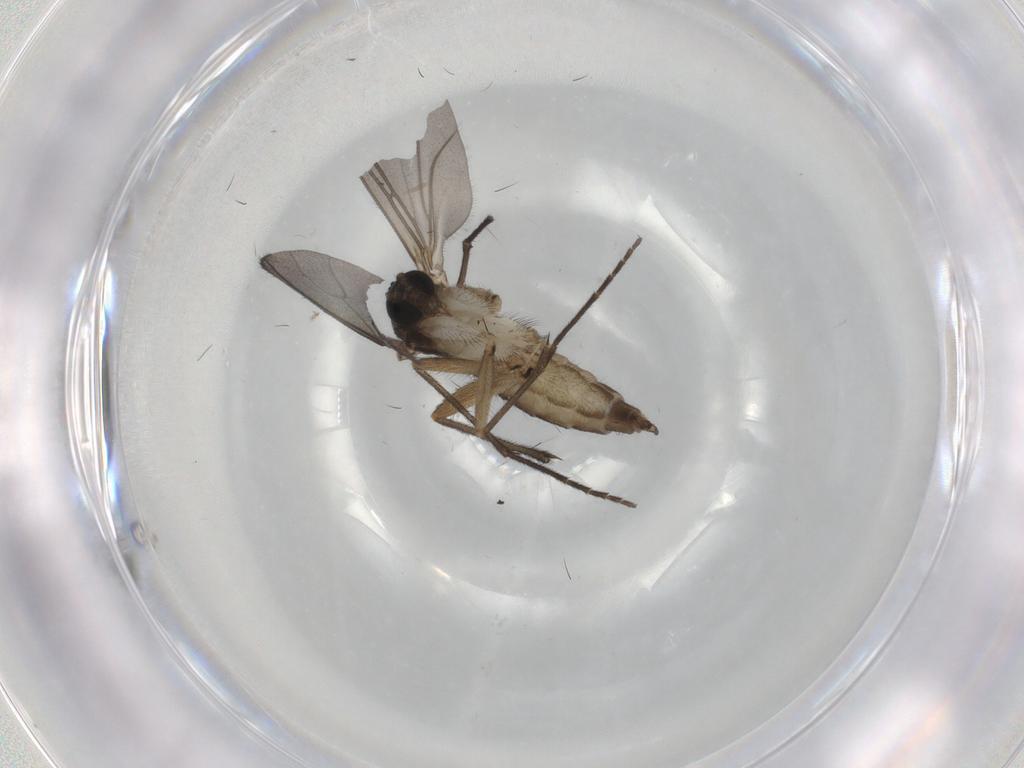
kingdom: Animalia
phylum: Arthropoda
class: Insecta
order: Diptera
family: Sciaridae
